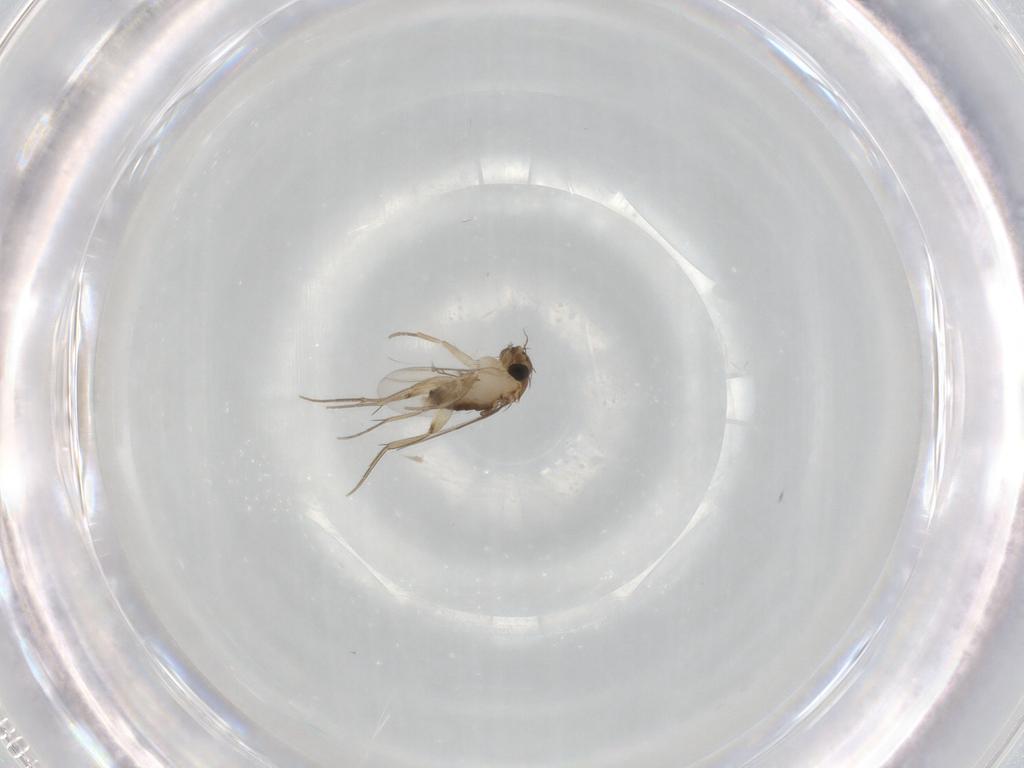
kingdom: Animalia
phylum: Arthropoda
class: Insecta
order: Diptera
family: Phoridae
